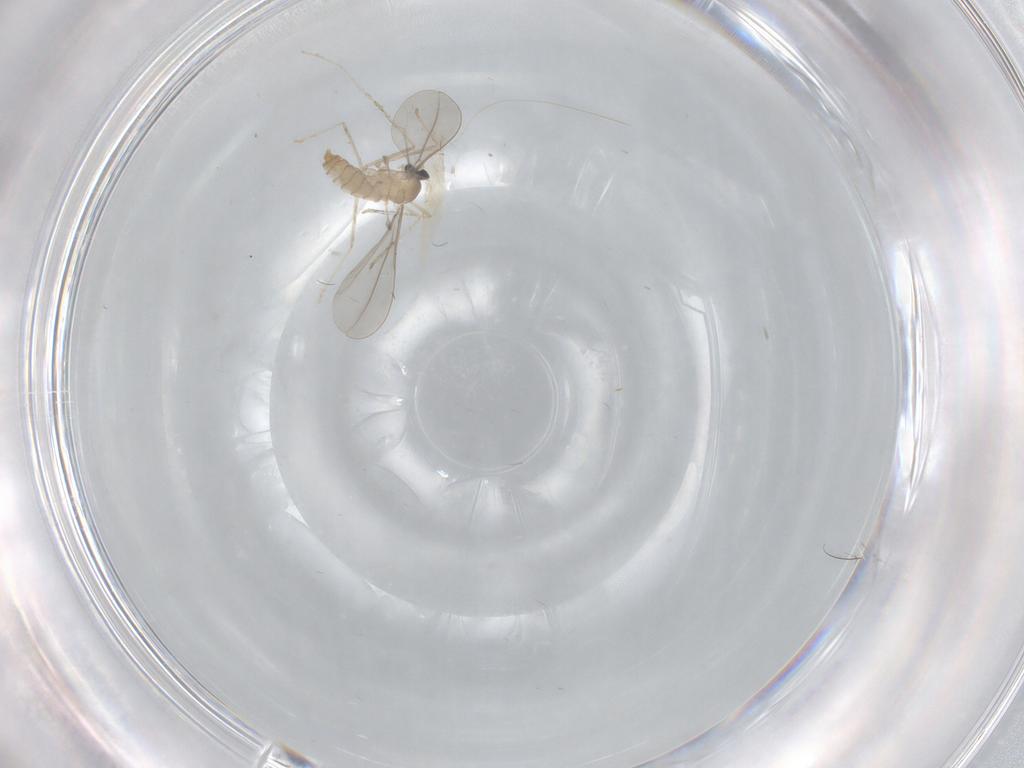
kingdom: Animalia
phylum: Arthropoda
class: Insecta
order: Diptera
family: Cecidomyiidae
